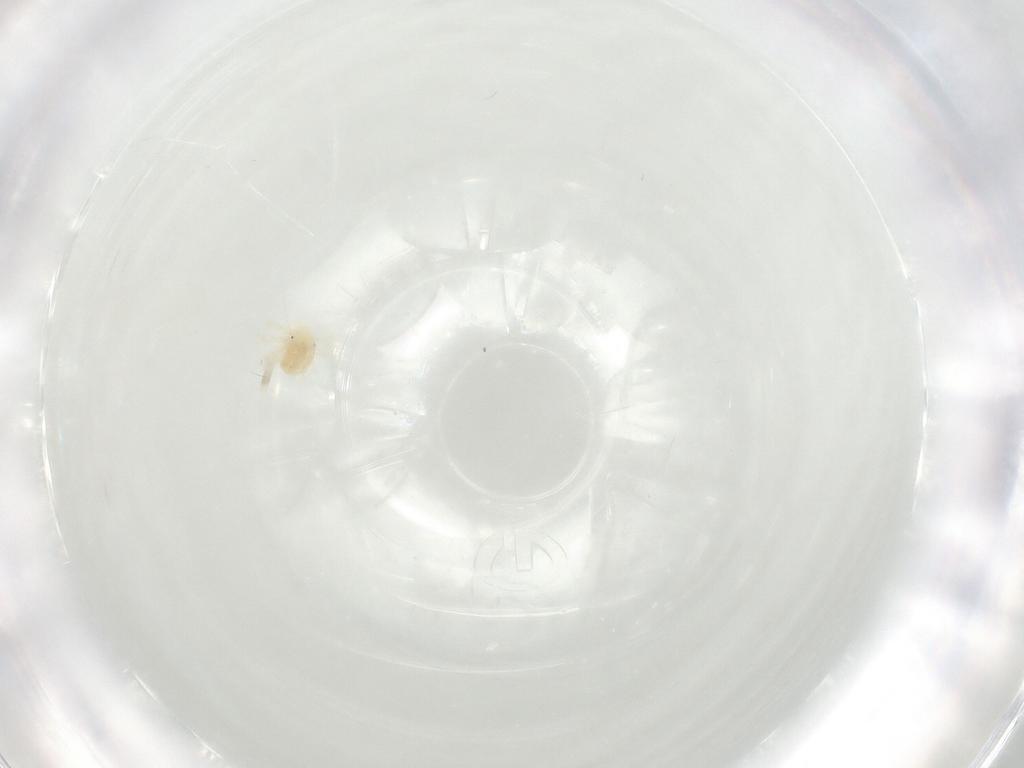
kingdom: Animalia
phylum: Arthropoda
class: Arachnida
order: Trombidiformes
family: Anystidae
